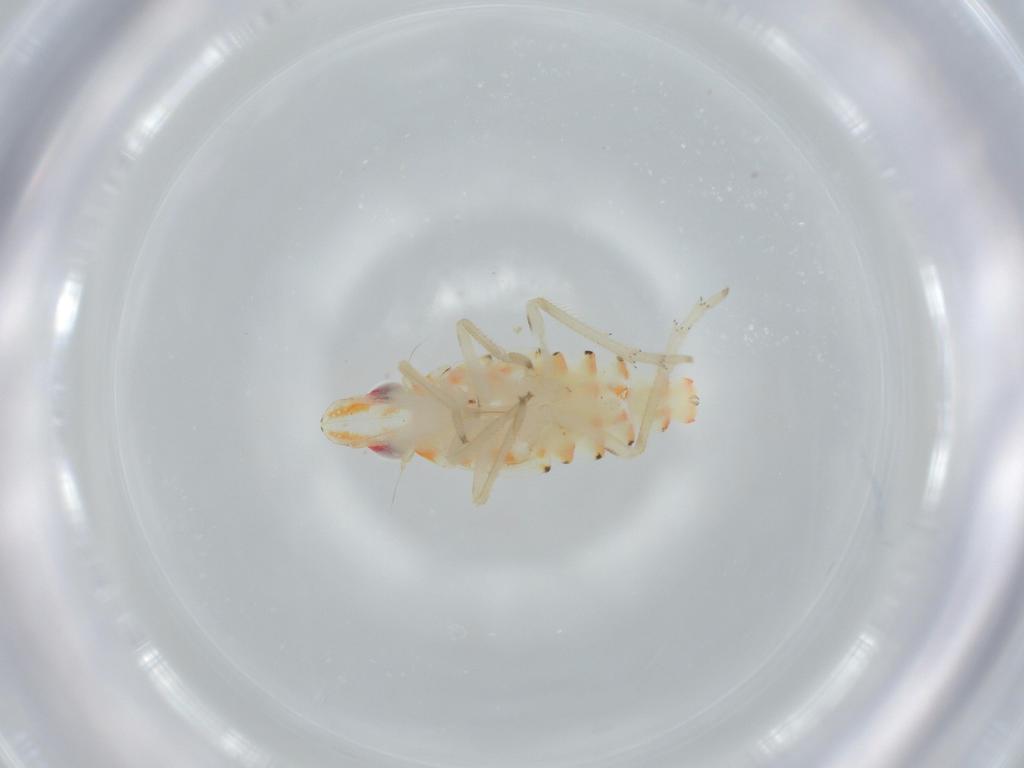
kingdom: Animalia
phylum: Arthropoda
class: Insecta
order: Hemiptera
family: Tropiduchidae
